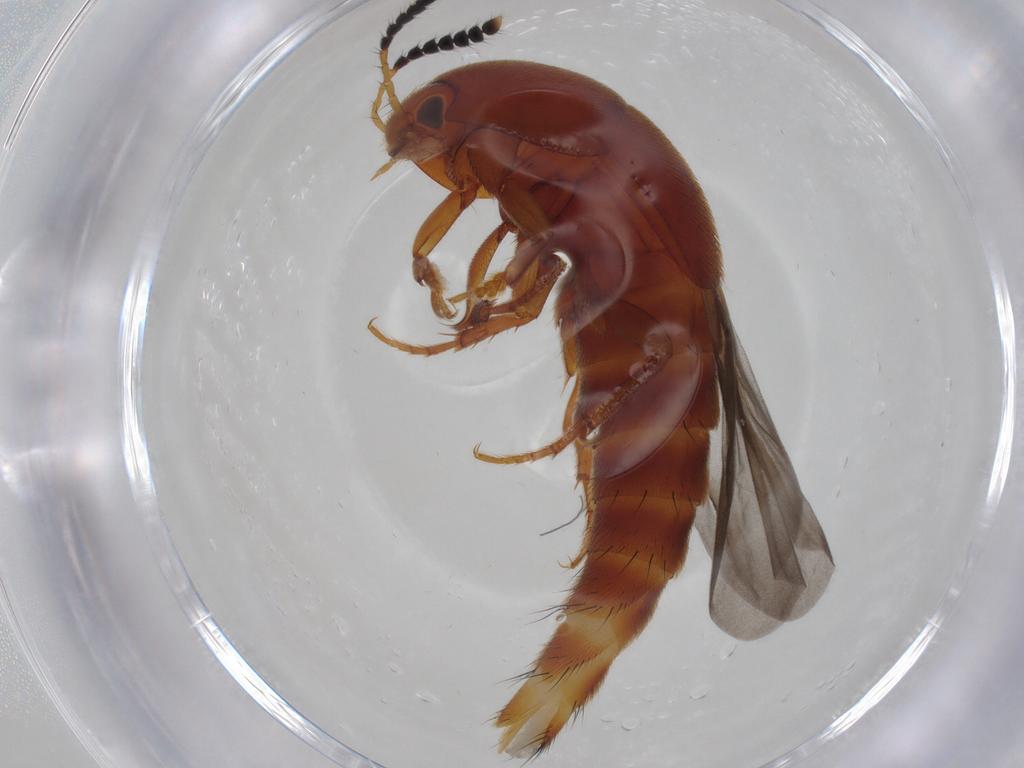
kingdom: Animalia
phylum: Arthropoda
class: Insecta
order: Coleoptera
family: Staphylinidae
